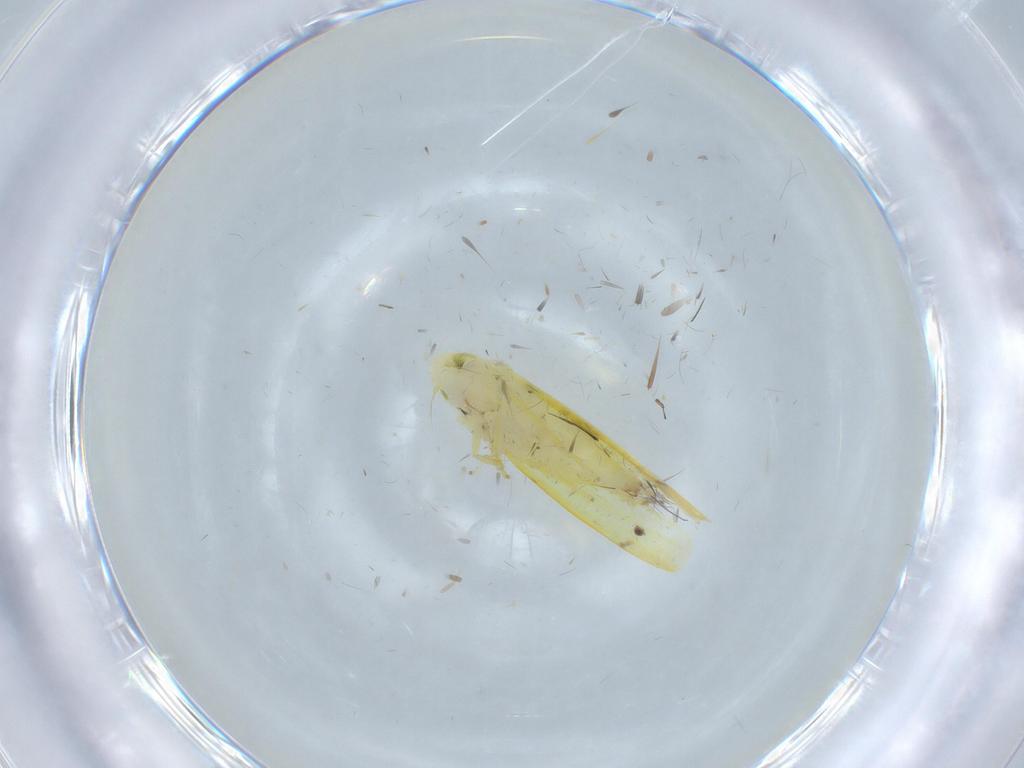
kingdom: Animalia
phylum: Arthropoda
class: Insecta
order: Hemiptera
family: Cicadellidae
